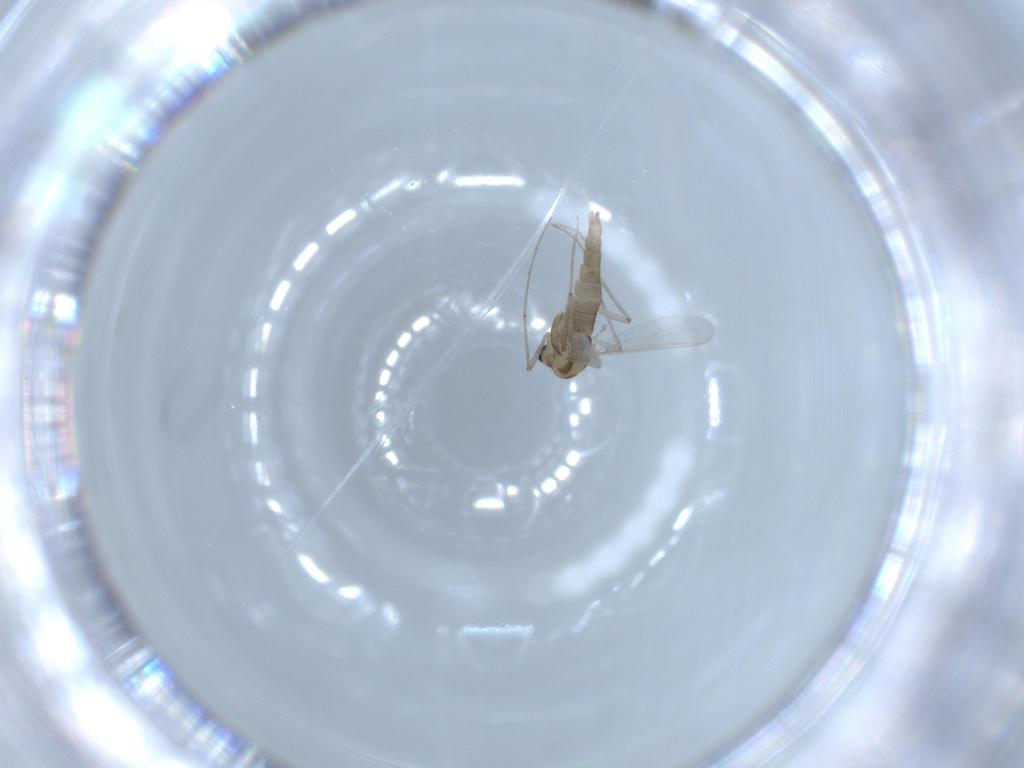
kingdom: Animalia
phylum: Arthropoda
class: Insecta
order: Diptera
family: Chironomidae
